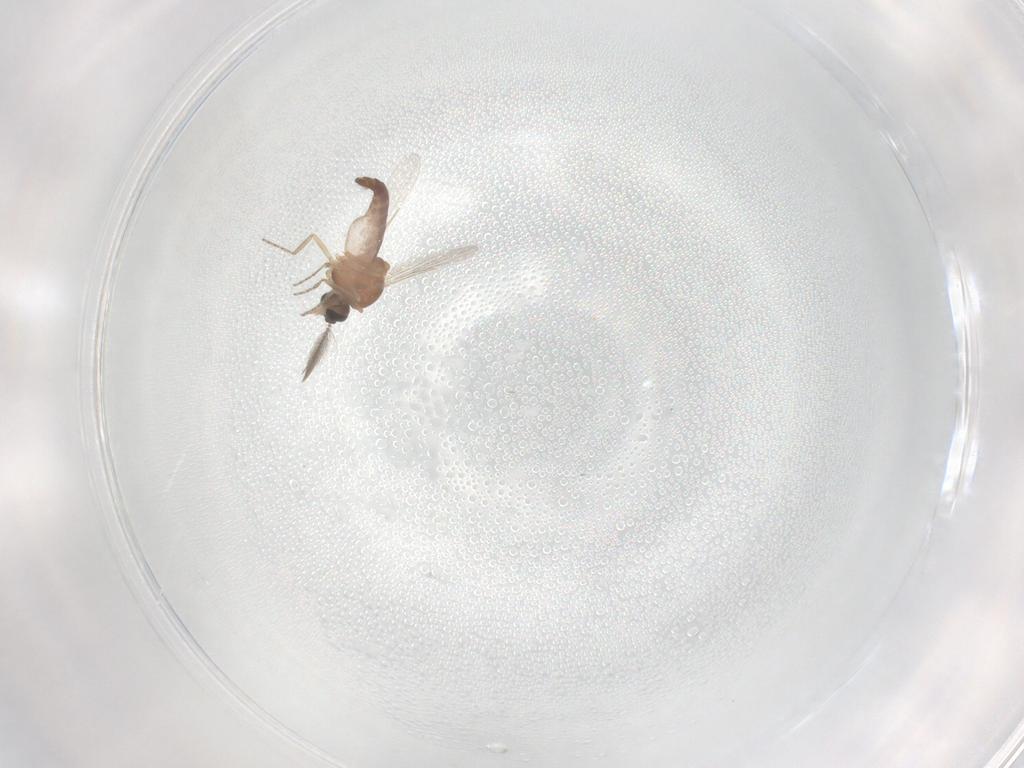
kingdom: Animalia
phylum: Arthropoda
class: Insecta
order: Diptera
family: Ceratopogonidae
